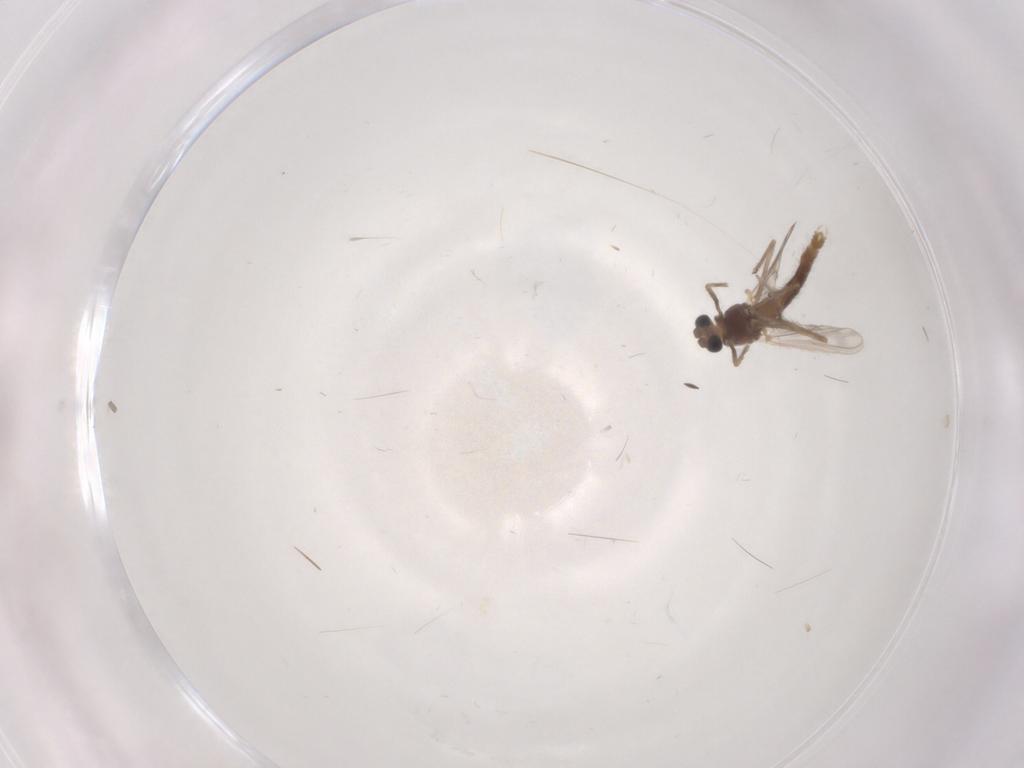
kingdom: Animalia
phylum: Arthropoda
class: Insecta
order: Diptera
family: Chironomidae
